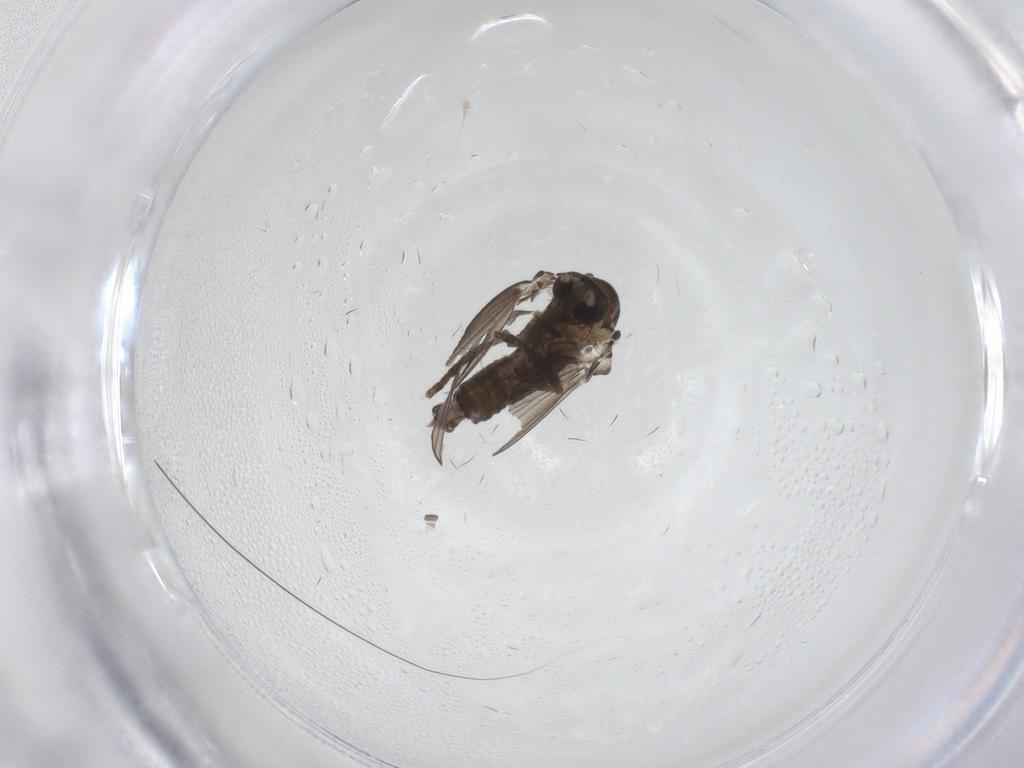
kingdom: Animalia
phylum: Arthropoda
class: Insecta
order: Diptera
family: Psychodidae
